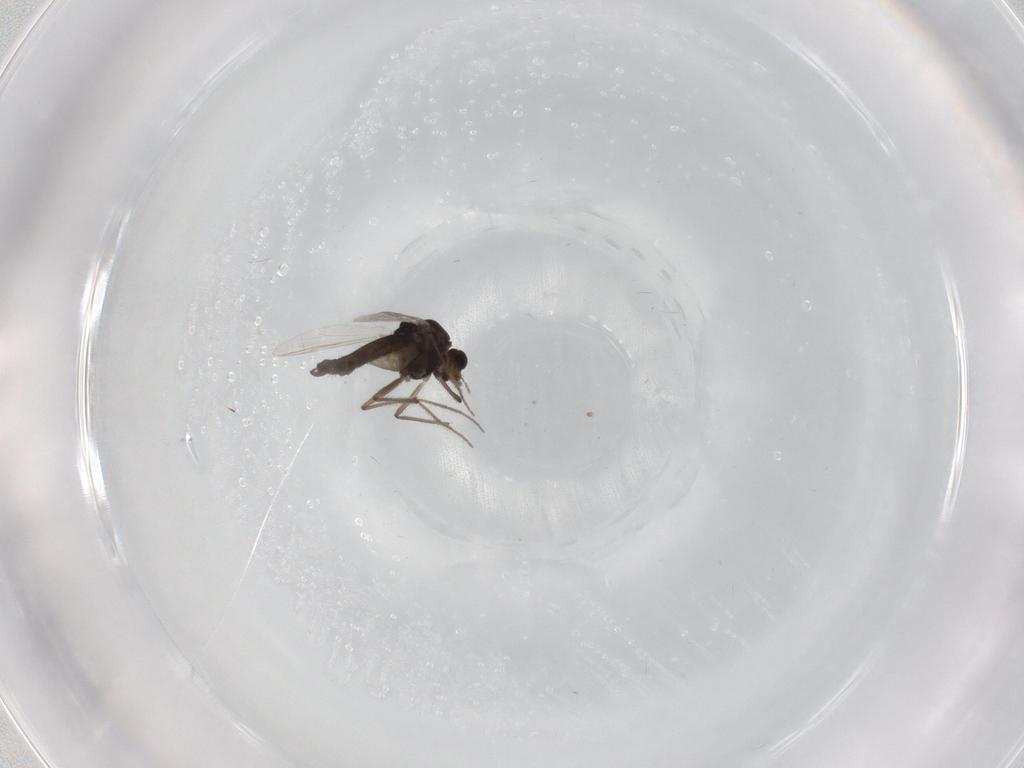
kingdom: Animalia
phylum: Arthropoda
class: Insecta
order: Diptera
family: Chironomidae
